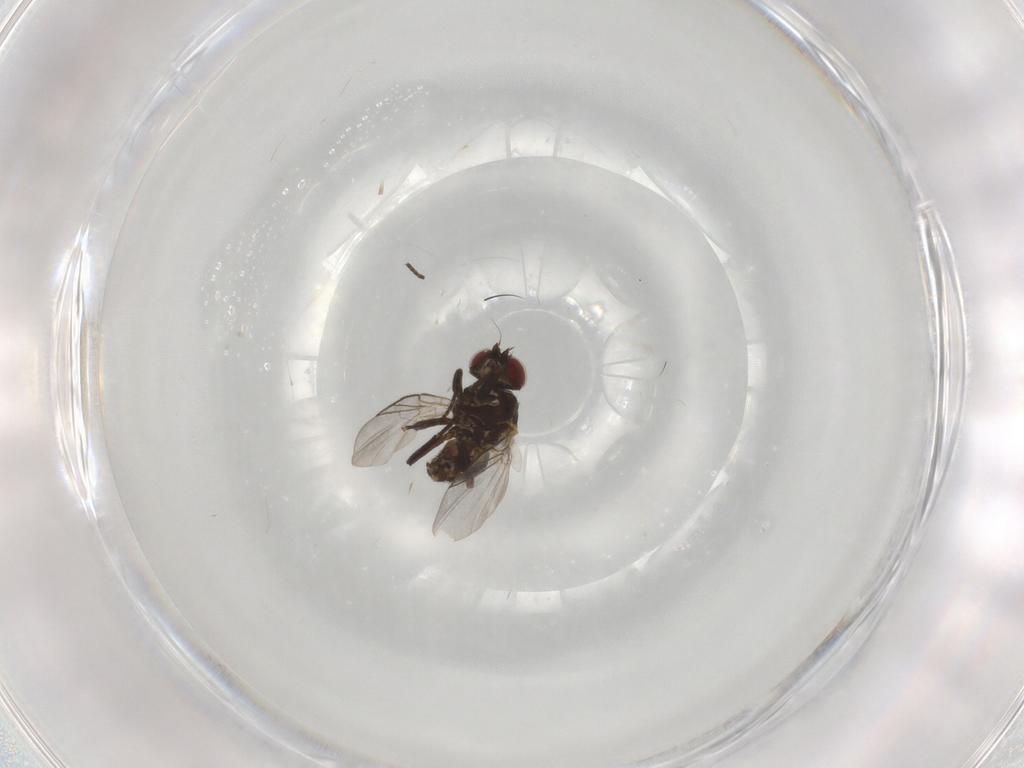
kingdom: Animalia
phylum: Arthropoda
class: Insecta
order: Diptera
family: Agromyzidae
